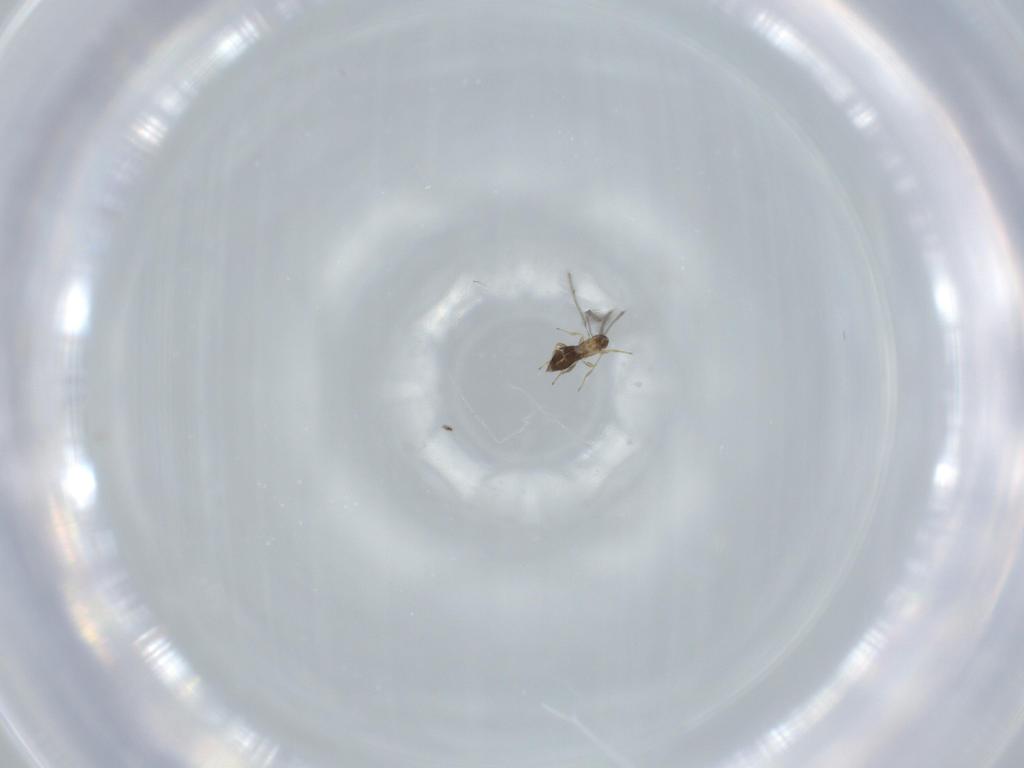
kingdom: Animalia
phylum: Arthropoda
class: Insecta
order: Hymenoptera
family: Mymaridae
